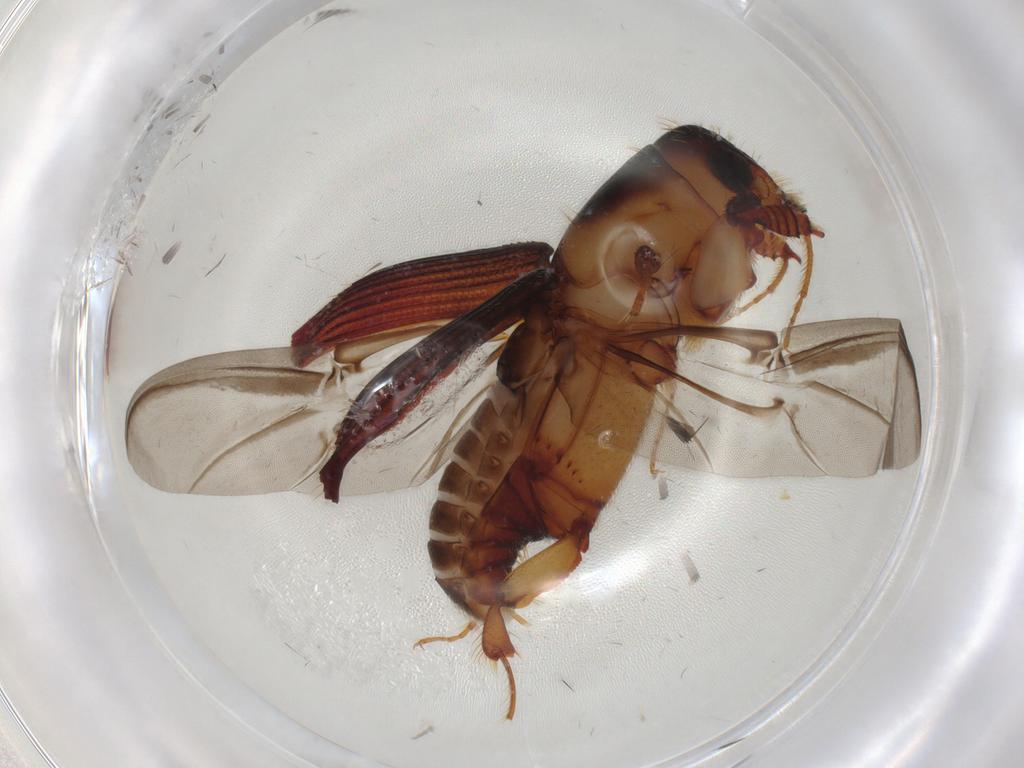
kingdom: Animalia
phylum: Arthropoda
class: Insecta
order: Coleoptera
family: Curculionidae
